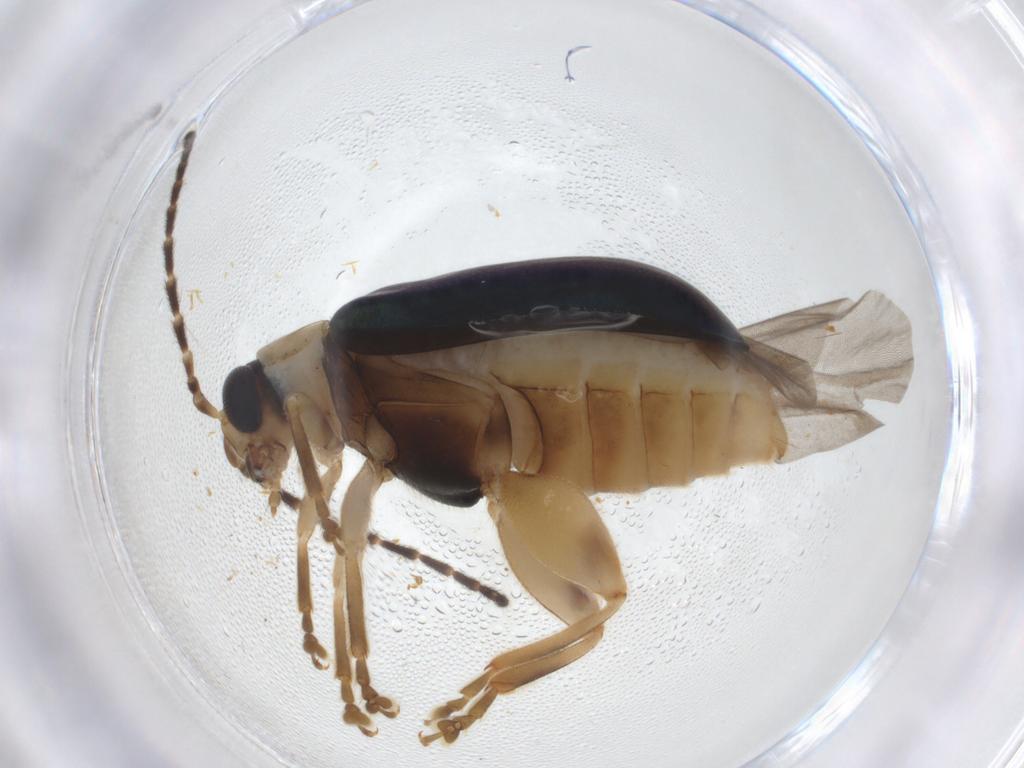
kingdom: Animalia
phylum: Arthropoda
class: Insecta
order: Coleoptera
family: Chrysomelidae
